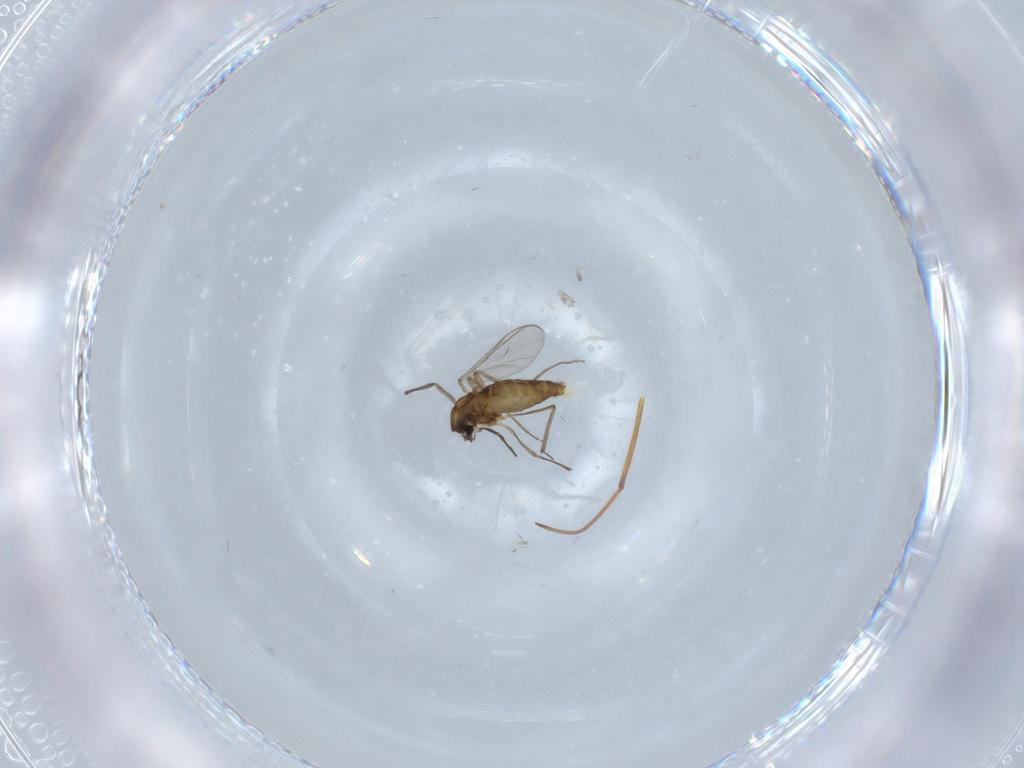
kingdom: Animalia
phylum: Arthropoda
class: Insecta
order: Diptera
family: Chironomidae
